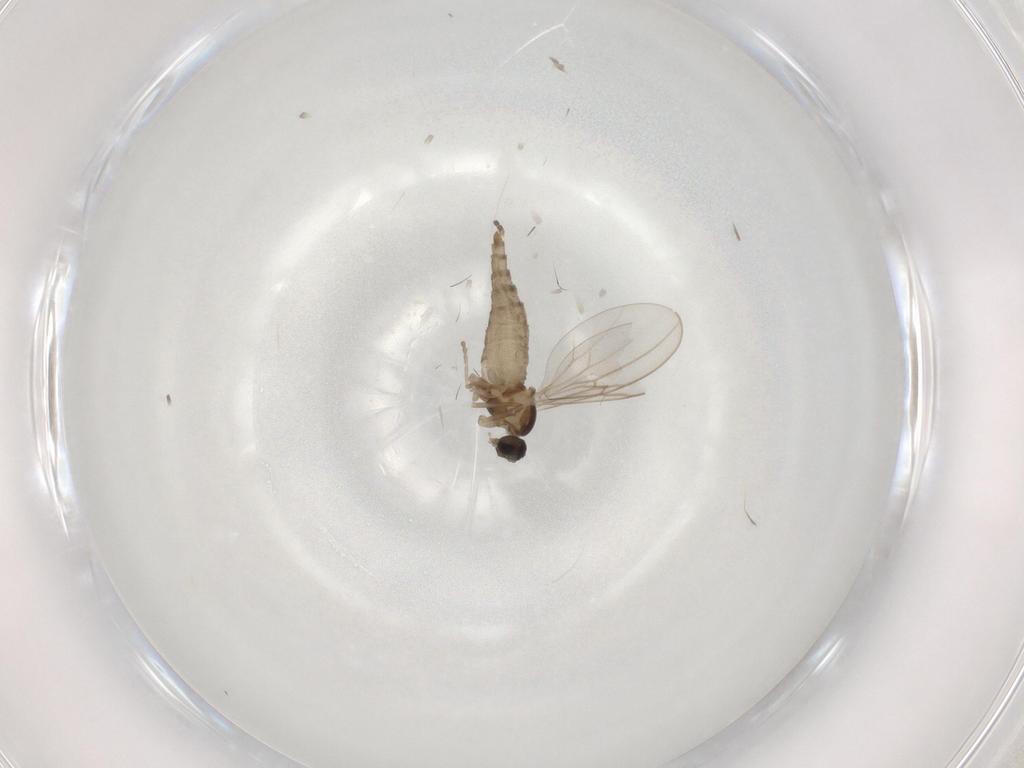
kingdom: Animalia
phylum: Arthropoda
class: Insecta
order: Diptera
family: Cecidomyiidae
